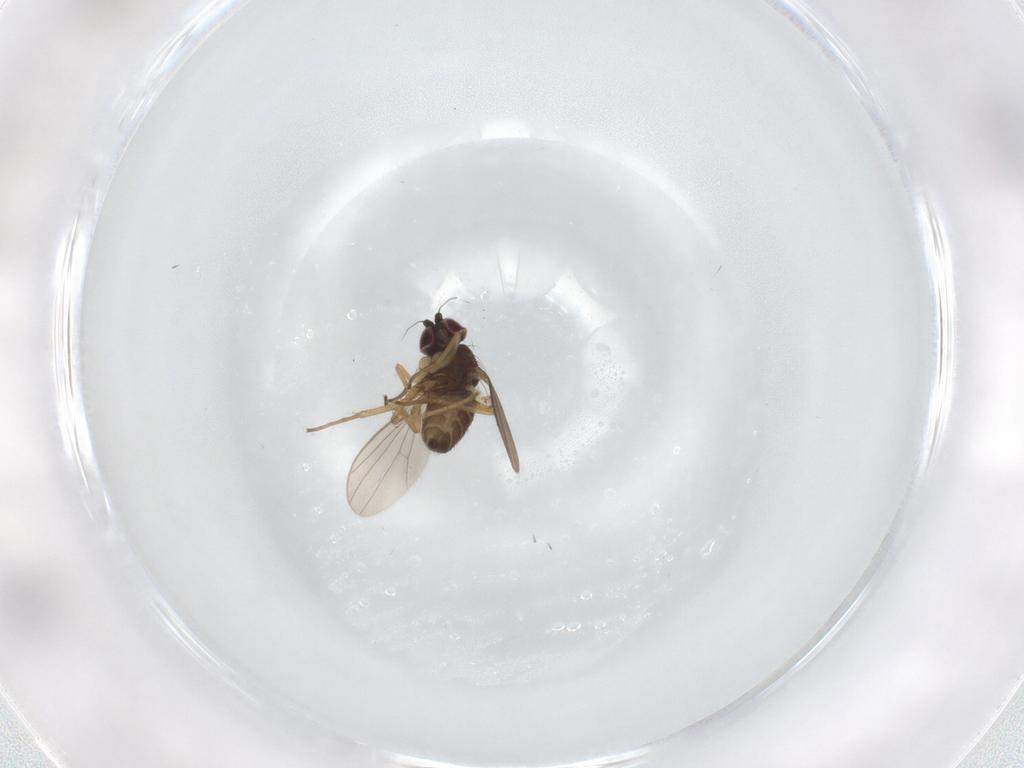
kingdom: Animalia
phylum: Arthropoda
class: Insecta
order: Diptera
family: Dolichopodidae
